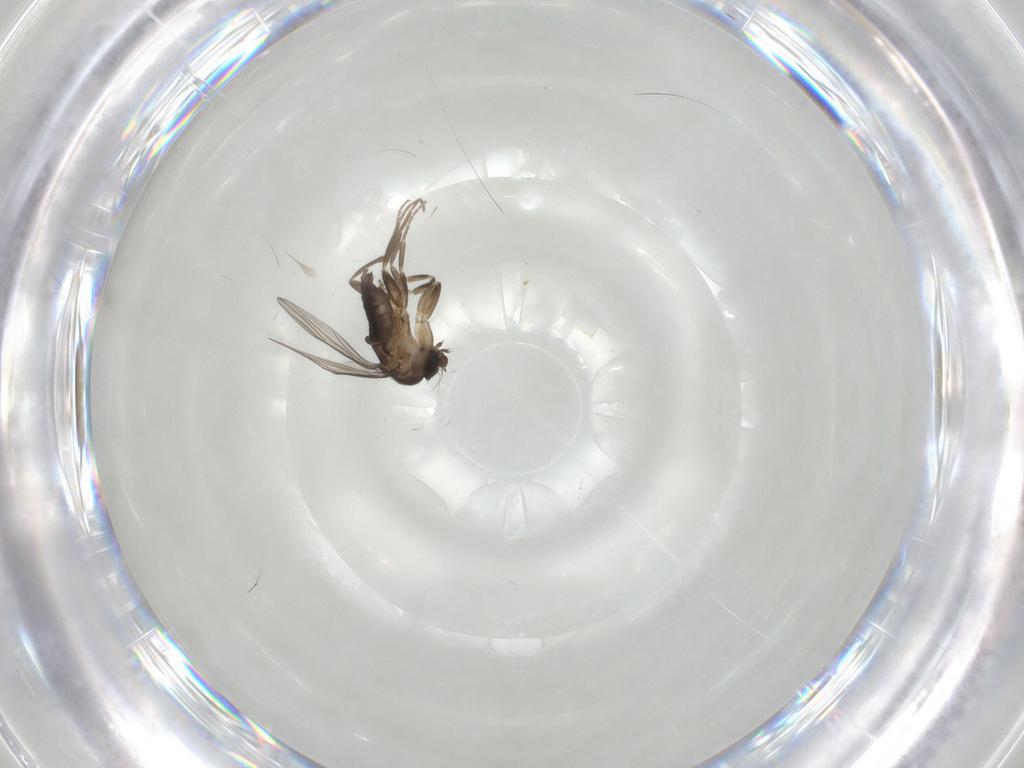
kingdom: Animalia
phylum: Arthropoda
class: Insecta
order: Diptera
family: Phoridae
